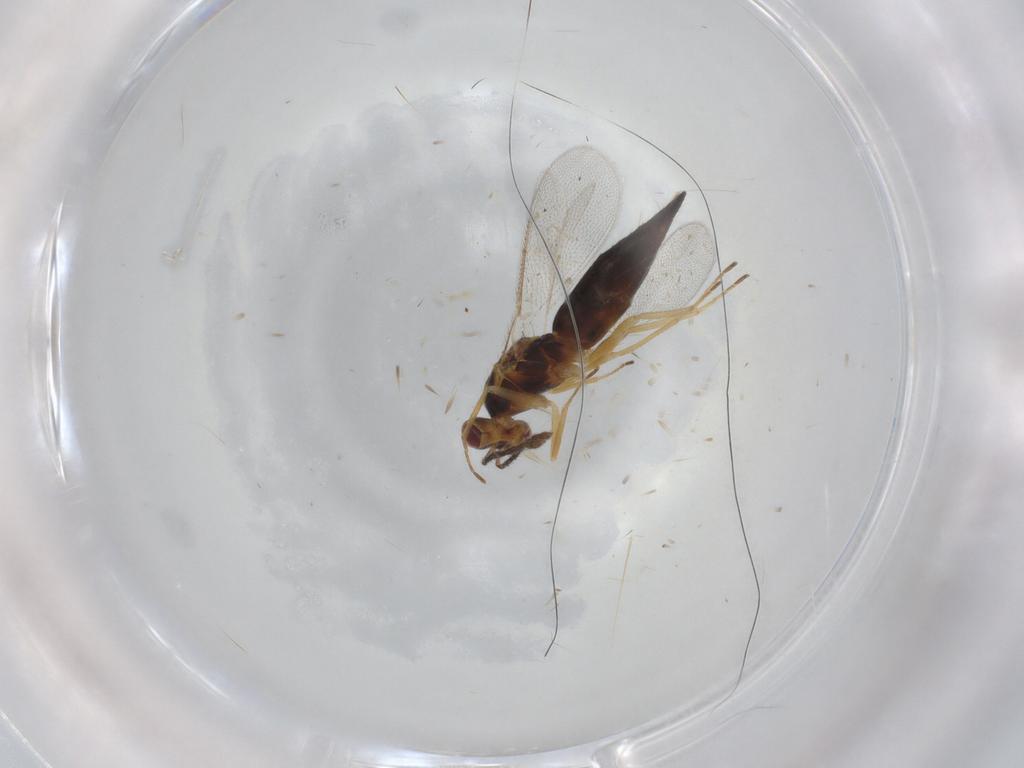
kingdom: Animalia
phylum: Arthropoda
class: Insecta
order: Hymenoptera
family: Eulophidae
